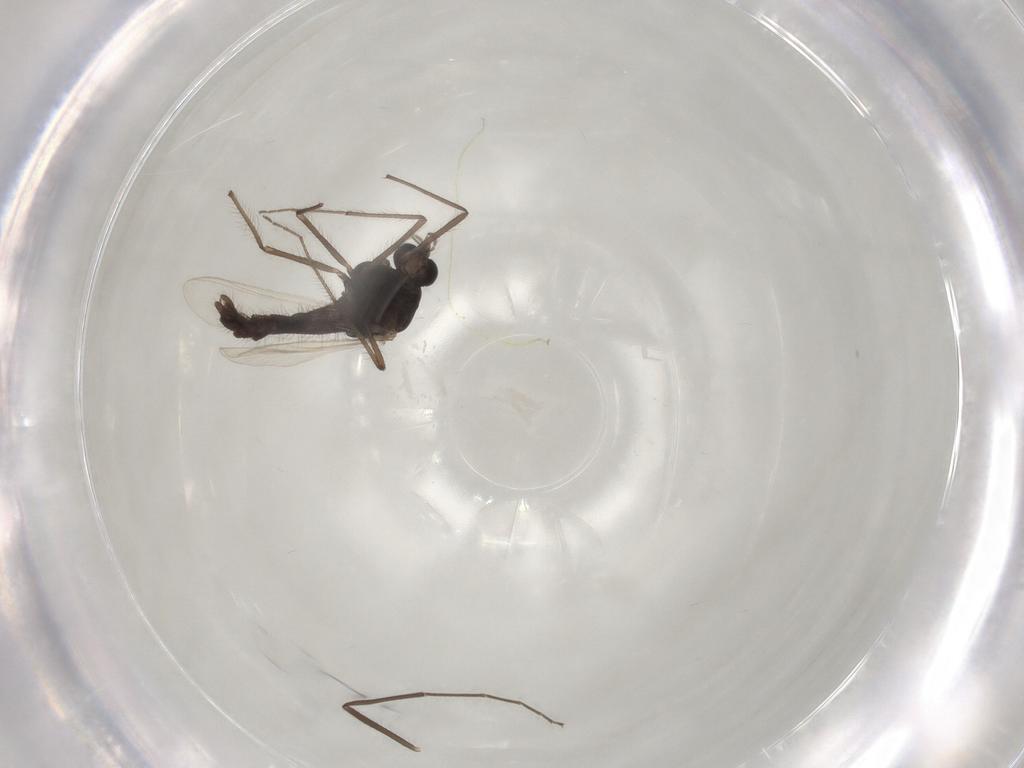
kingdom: Animalia
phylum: Arthropoda
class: Insecta
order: Diptera
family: Chironomidae
